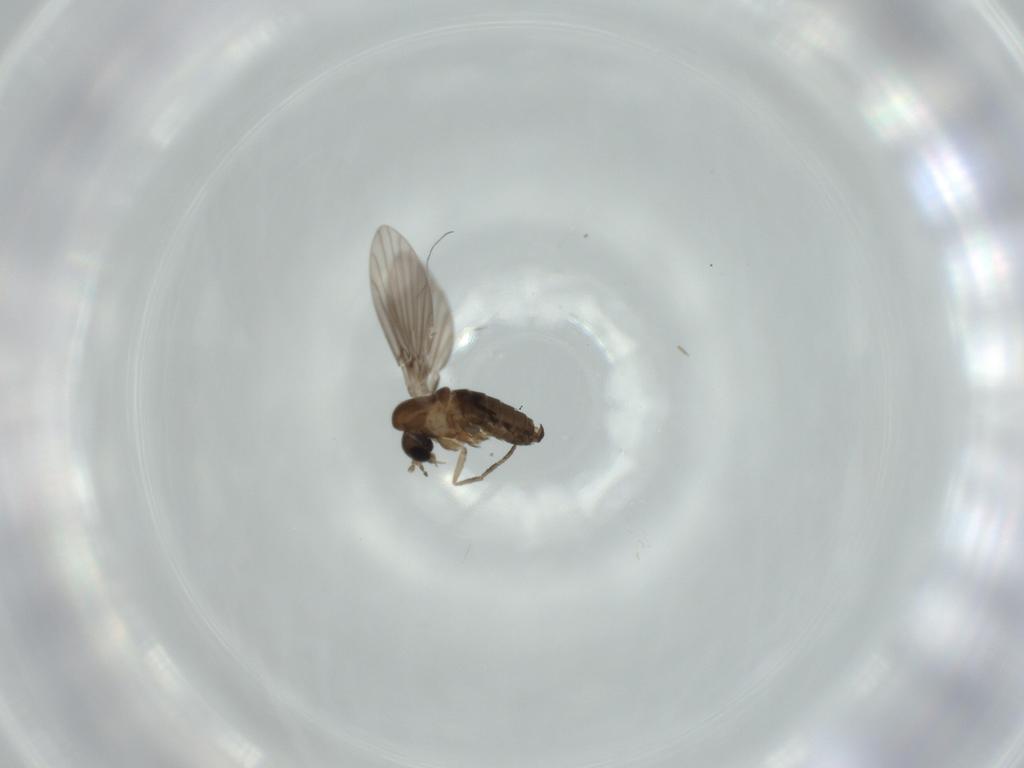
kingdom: Animalia
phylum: Arthropoda
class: Insecta
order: Diptera
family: Psychodidae
